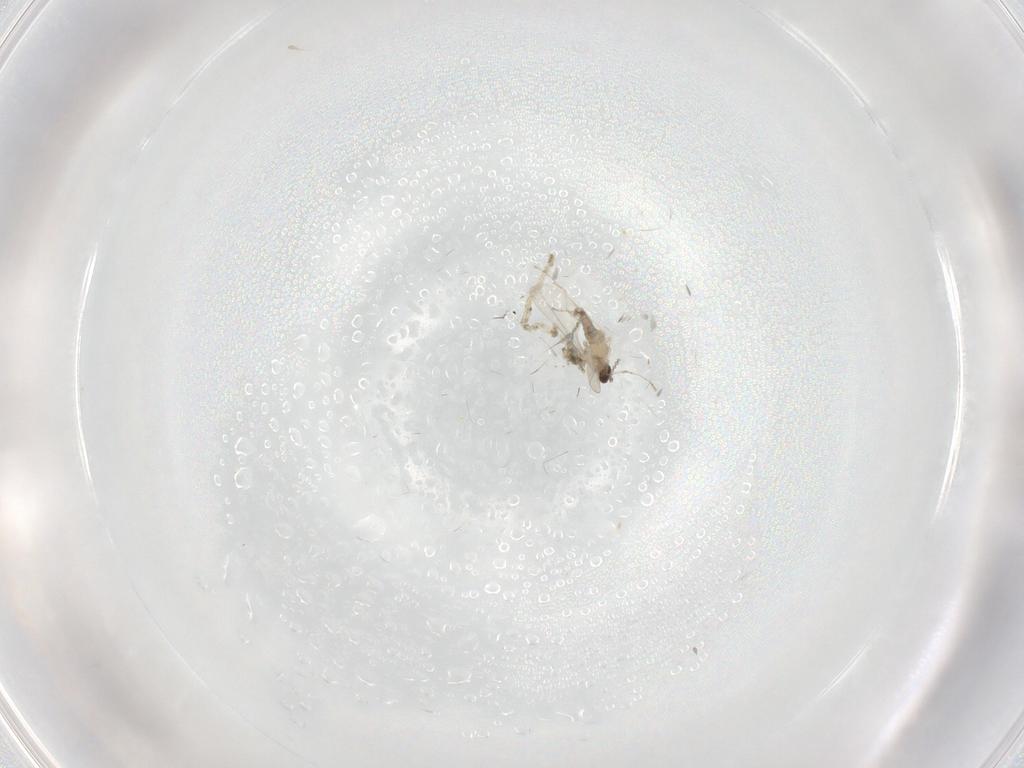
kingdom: Animalia
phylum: Arthropoda
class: Insecta
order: Diptera
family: Cecidomyiidae
